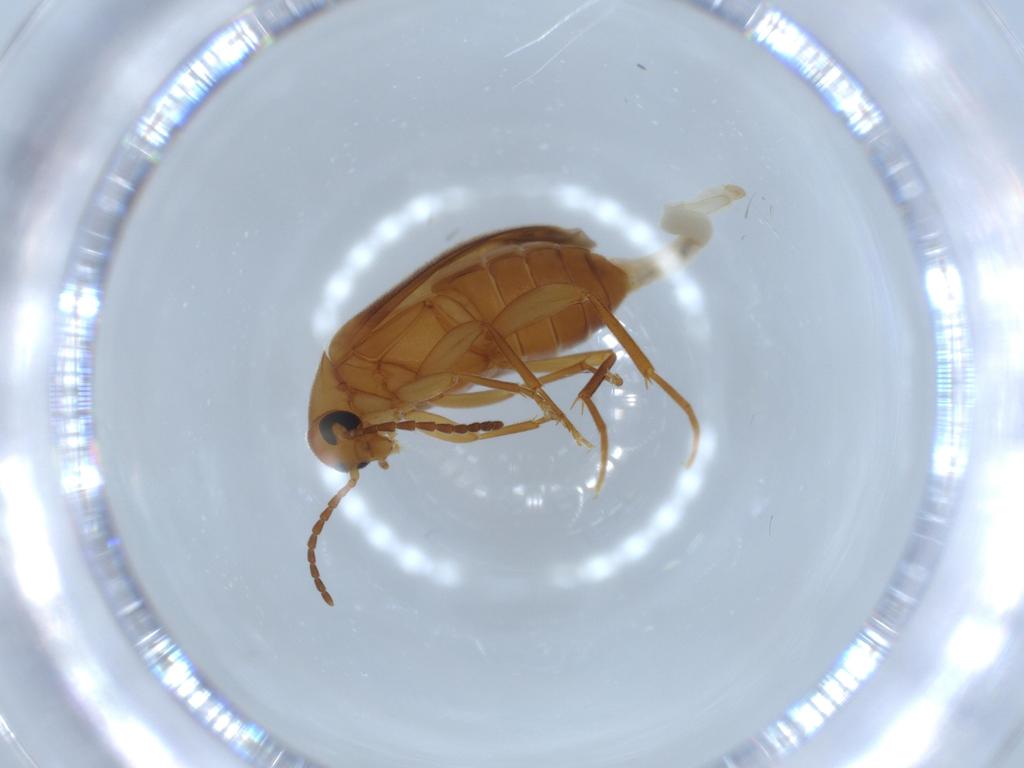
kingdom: Animalia
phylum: Arthropoda
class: Insecta
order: Coleoptera
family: Scraptiidae
